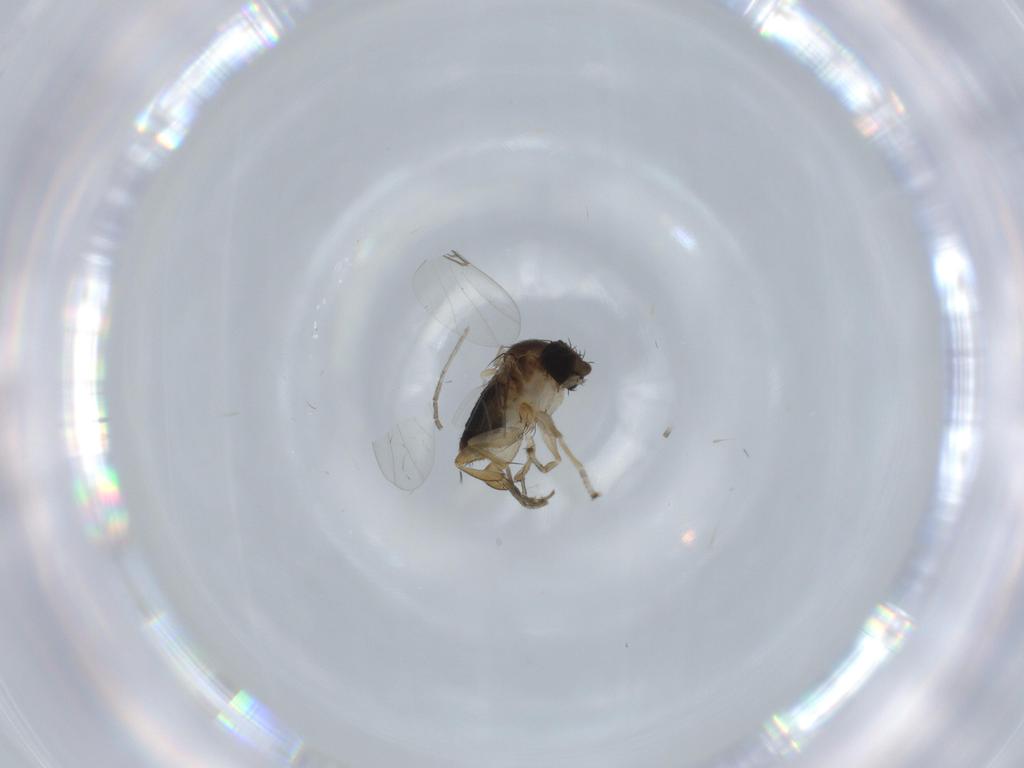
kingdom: Animalia
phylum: Arthropoda
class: Insecta
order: Diptera
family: Phoridae
